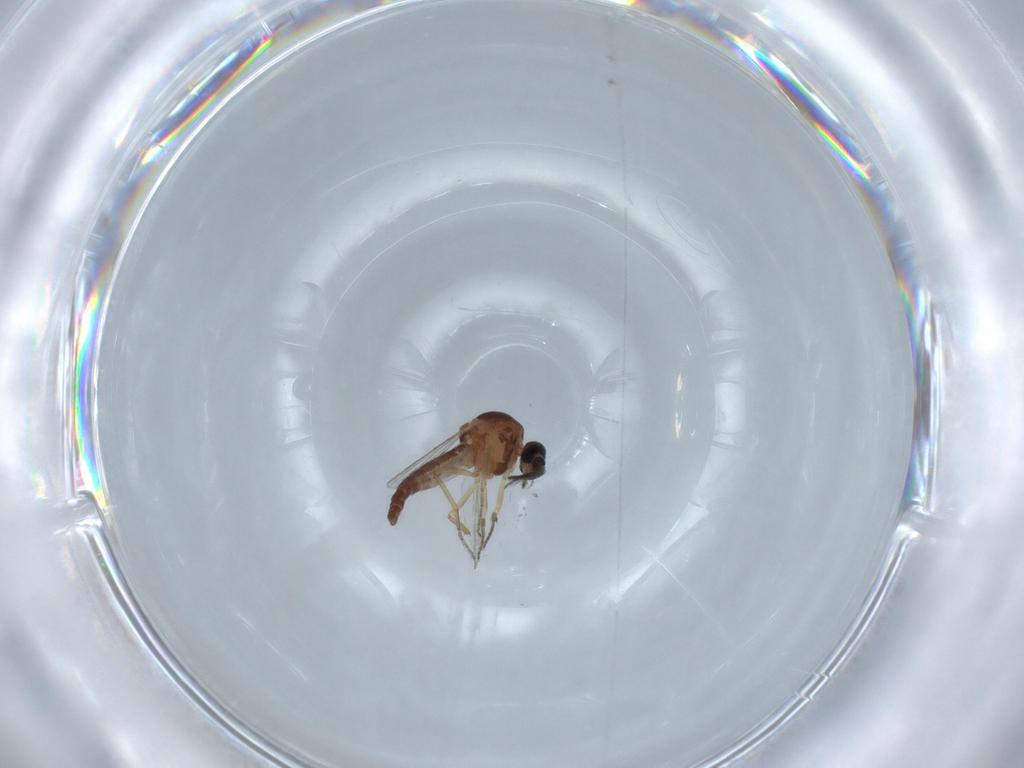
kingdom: Animalia
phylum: Arthropoda
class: Insecta
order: Diptera
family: Ceratopogonidae
